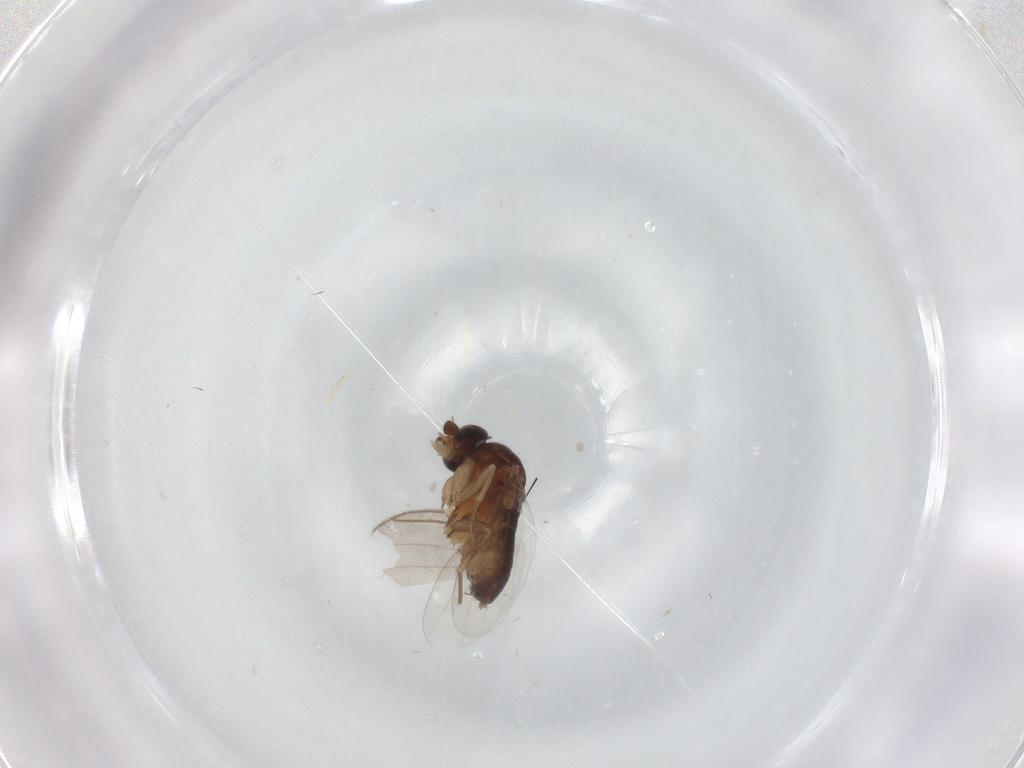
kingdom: Animalia
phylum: Arthropoda
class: Insecta
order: Diptera
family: Phoridae
